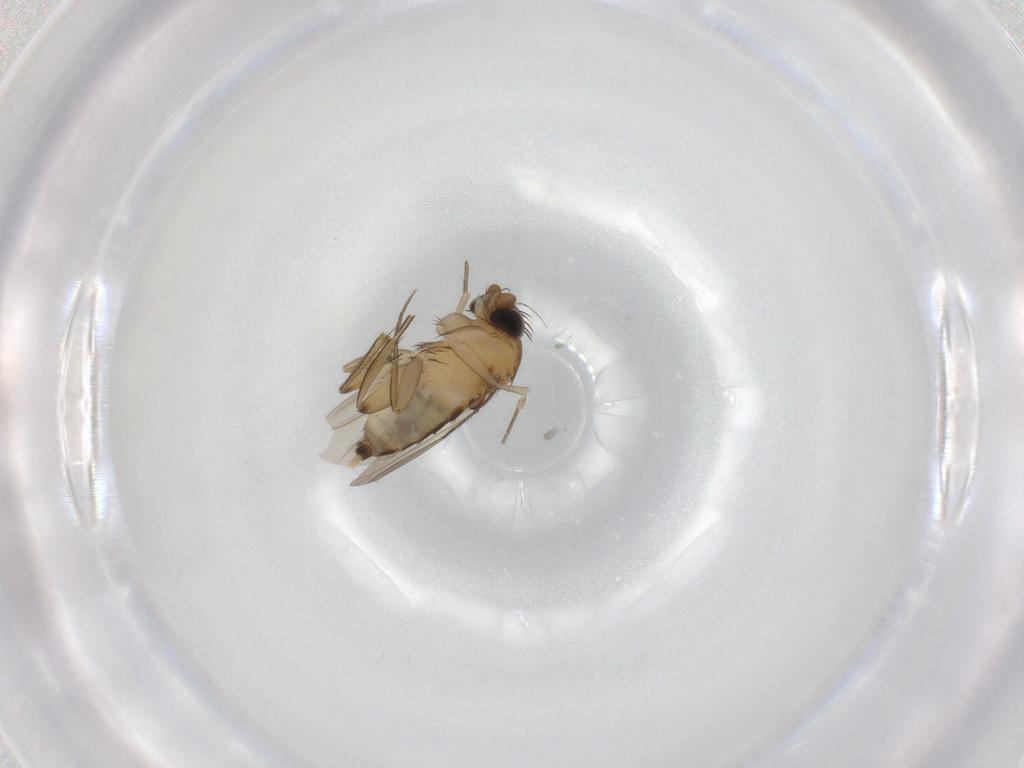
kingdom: Animalia
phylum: Arthropoda
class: Insecta
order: Diptera
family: Phoridae
